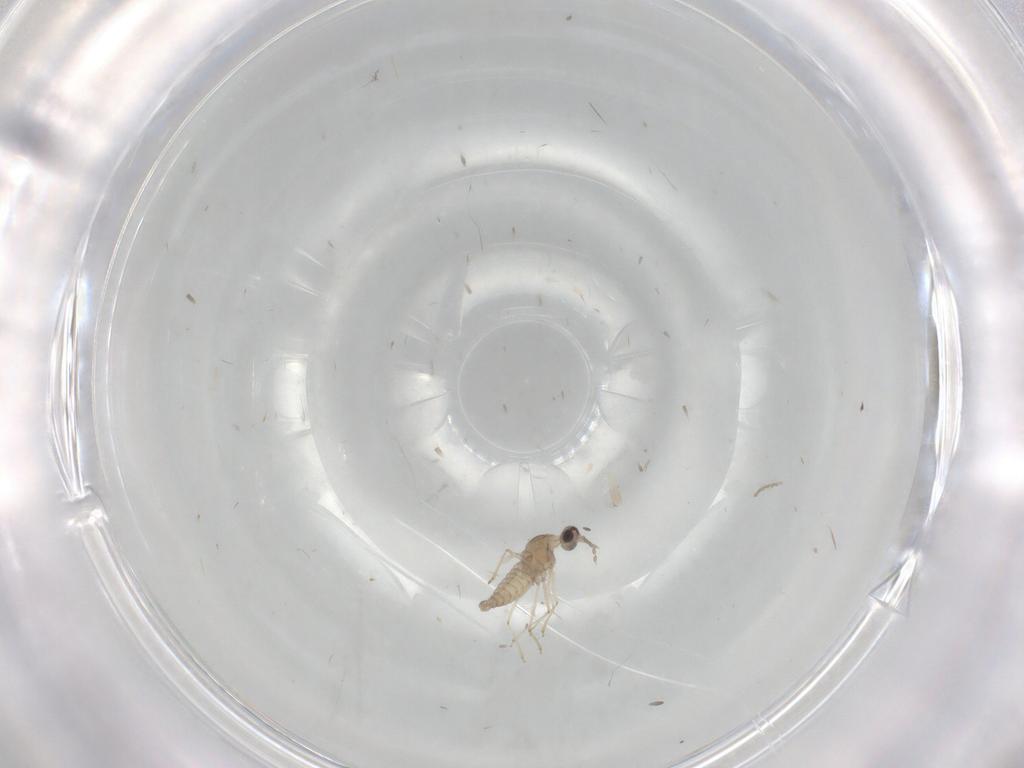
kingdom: Animalia
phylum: Arthropoda
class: Insecta
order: Diptera
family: Cecidomyiidae
